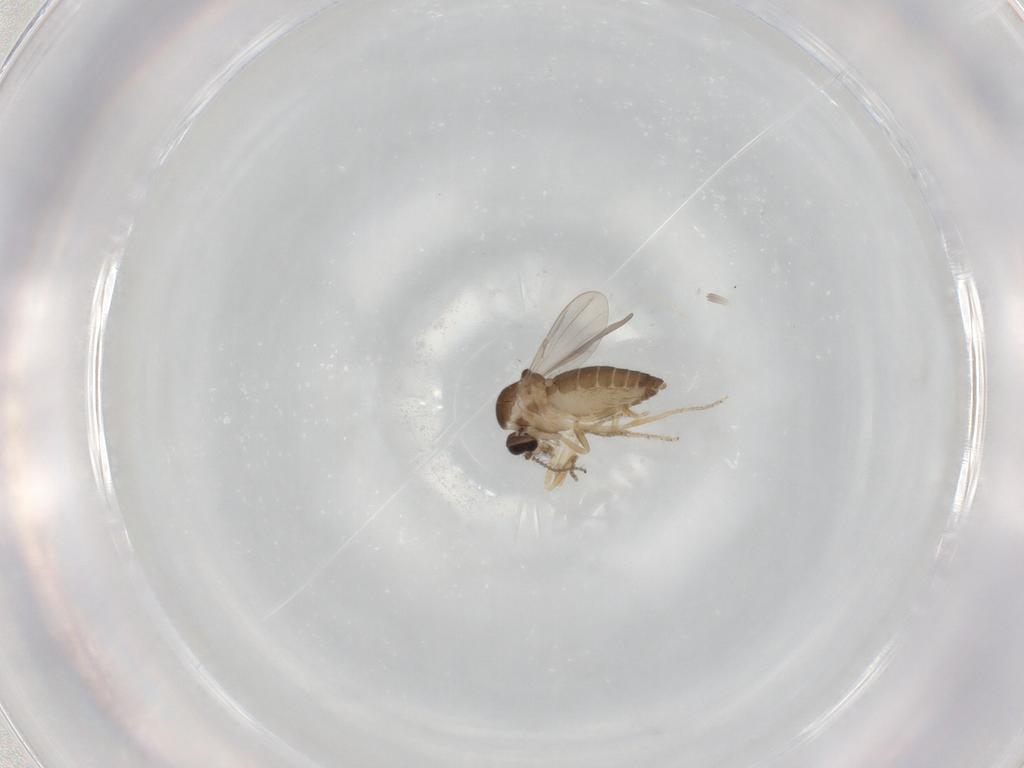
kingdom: Animalia
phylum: Arthropoda
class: Insecta
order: Diptera
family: Ceratopogonidae
